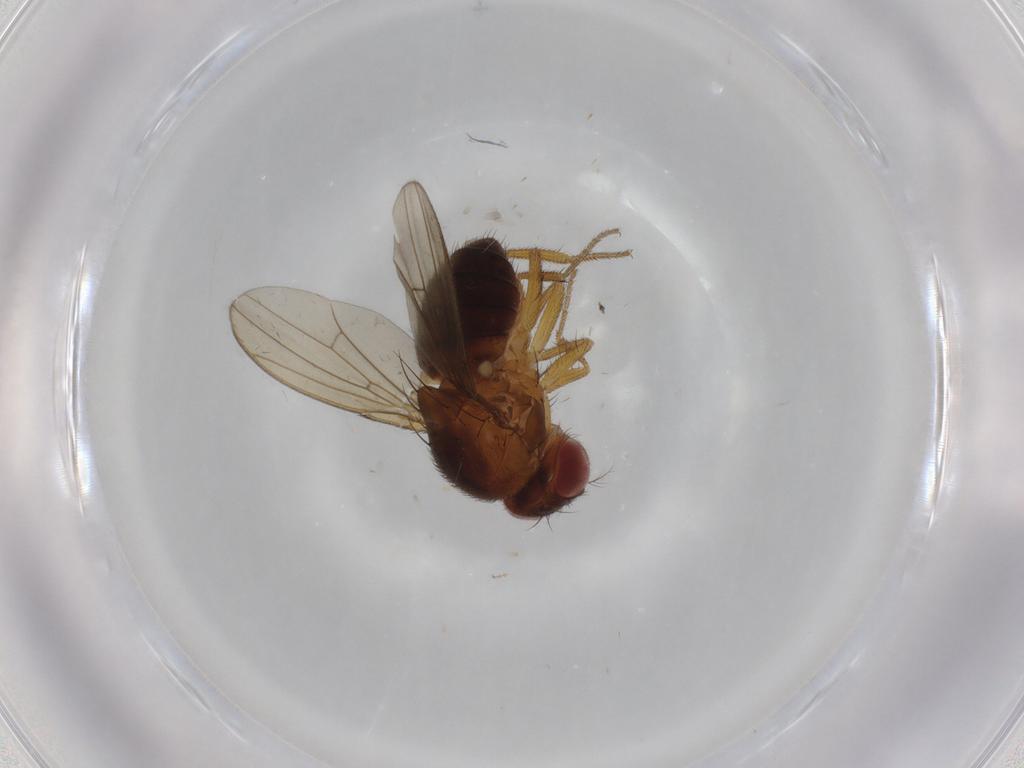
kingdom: Animalia
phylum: Arthropoda
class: Insecta
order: Diptera
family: Drosophilidae
